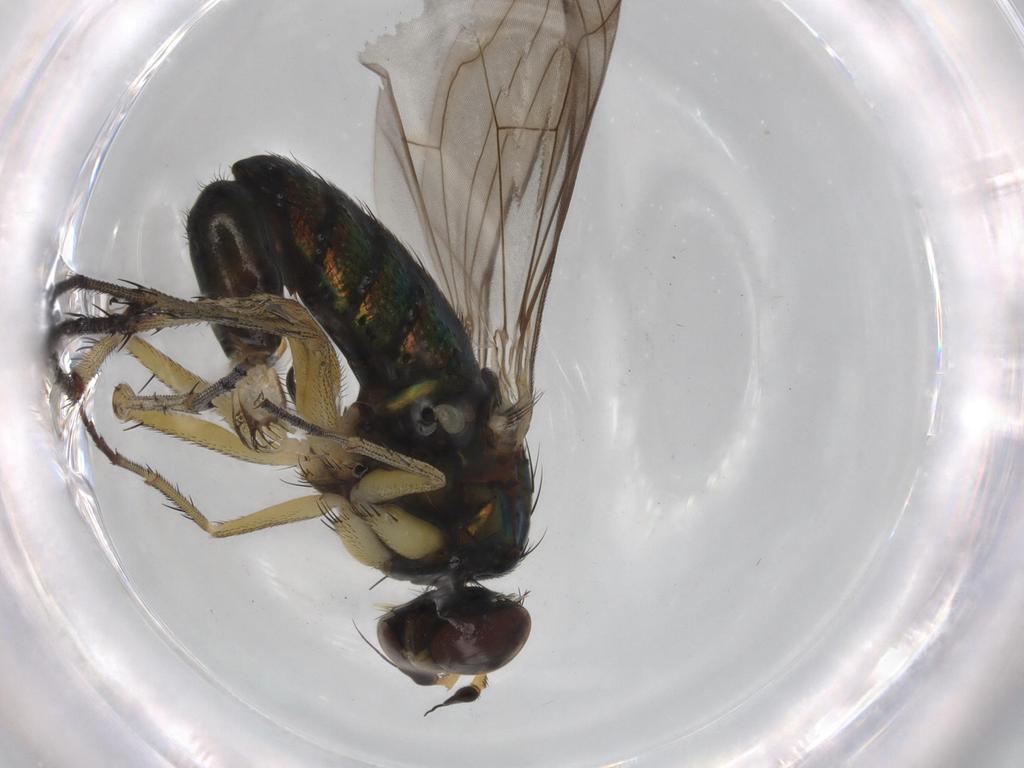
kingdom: Animalia
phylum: Arthropoda
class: Insecta
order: Diptera
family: Dolichopodidae
